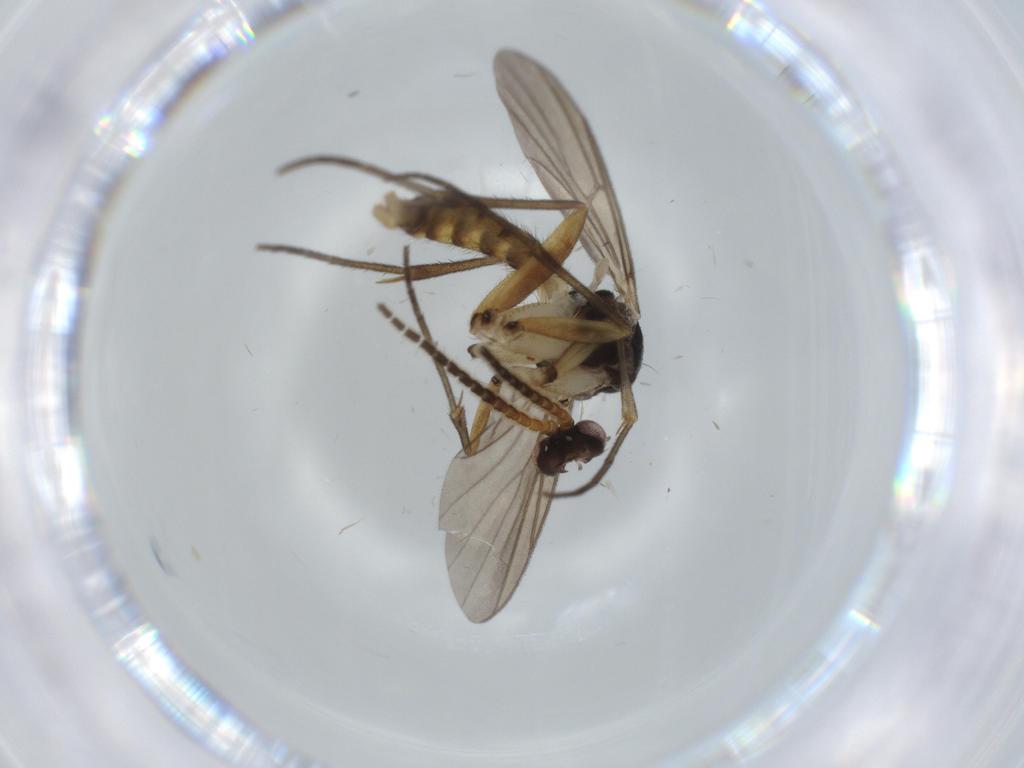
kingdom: Animalia
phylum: Arthropoda
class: Insecta
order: Diptera
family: Mycetophilidae
